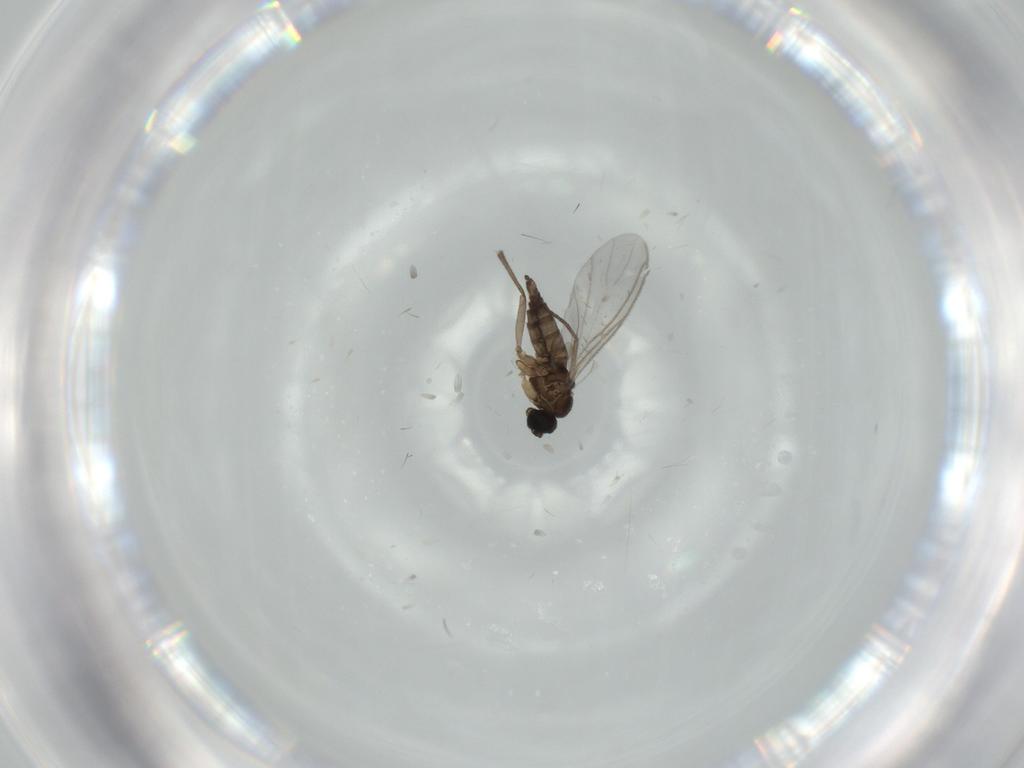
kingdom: Animalia
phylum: Arthropoda
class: Insecta
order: Diptera
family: Sciaridae
